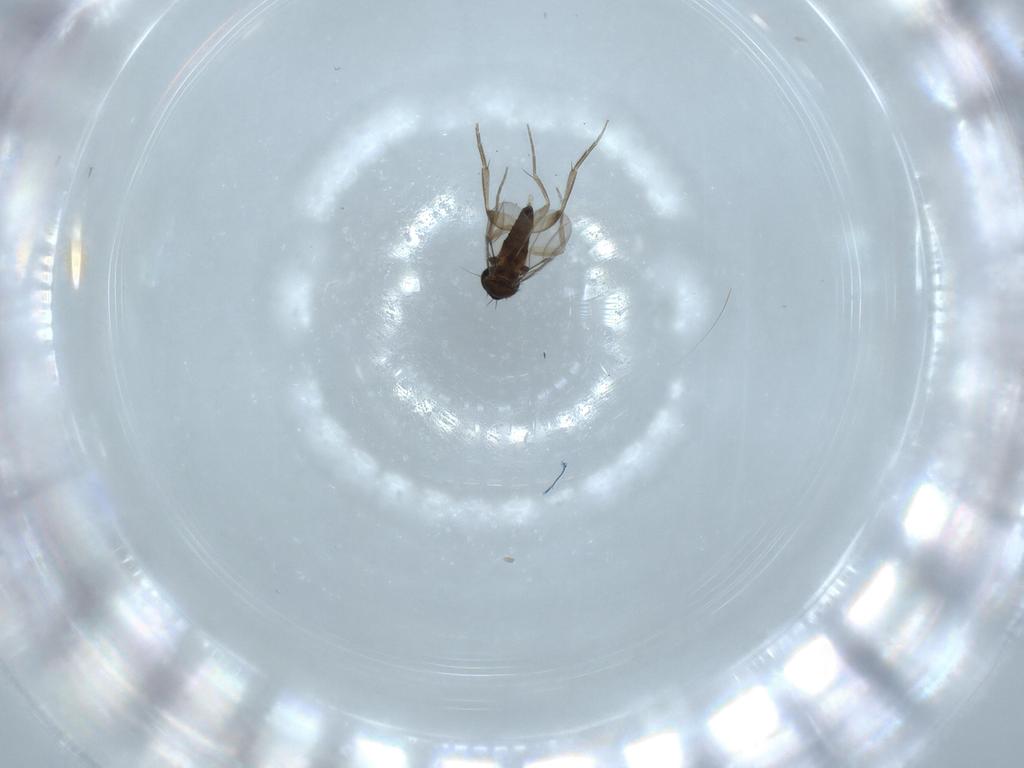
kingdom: Animalia
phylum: Arthropoda
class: Insecta
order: Diptera
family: Phoridae
